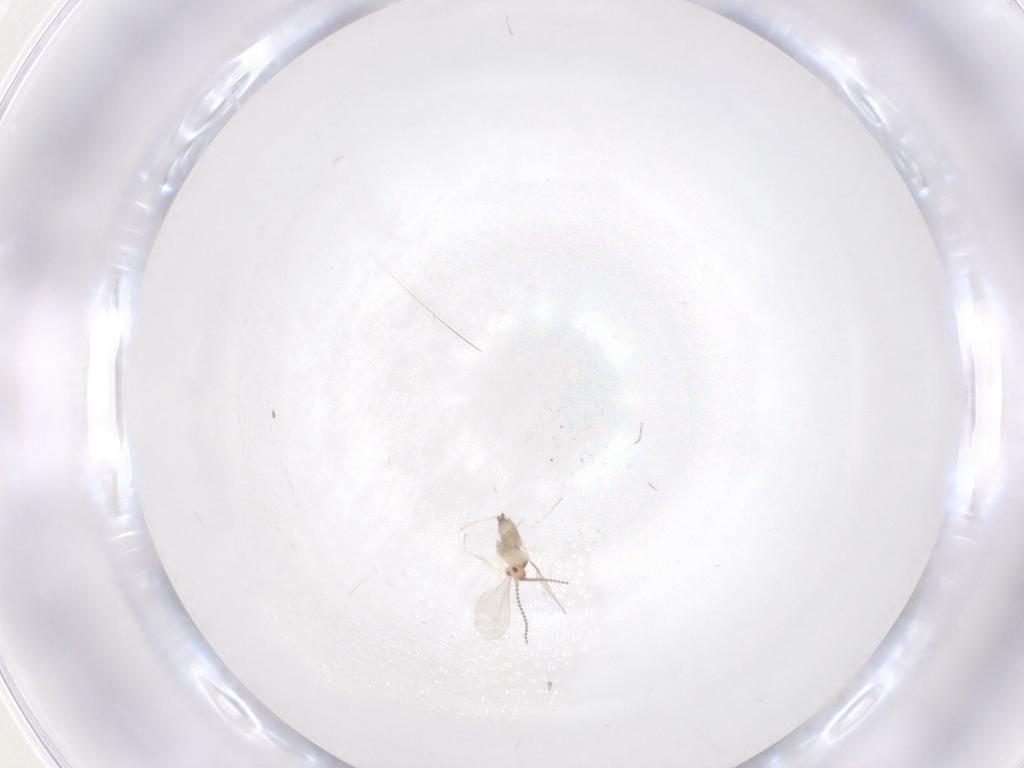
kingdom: Animalia
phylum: Arthropoda
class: Insecta
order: Diptera
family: Cecidomyiidae
